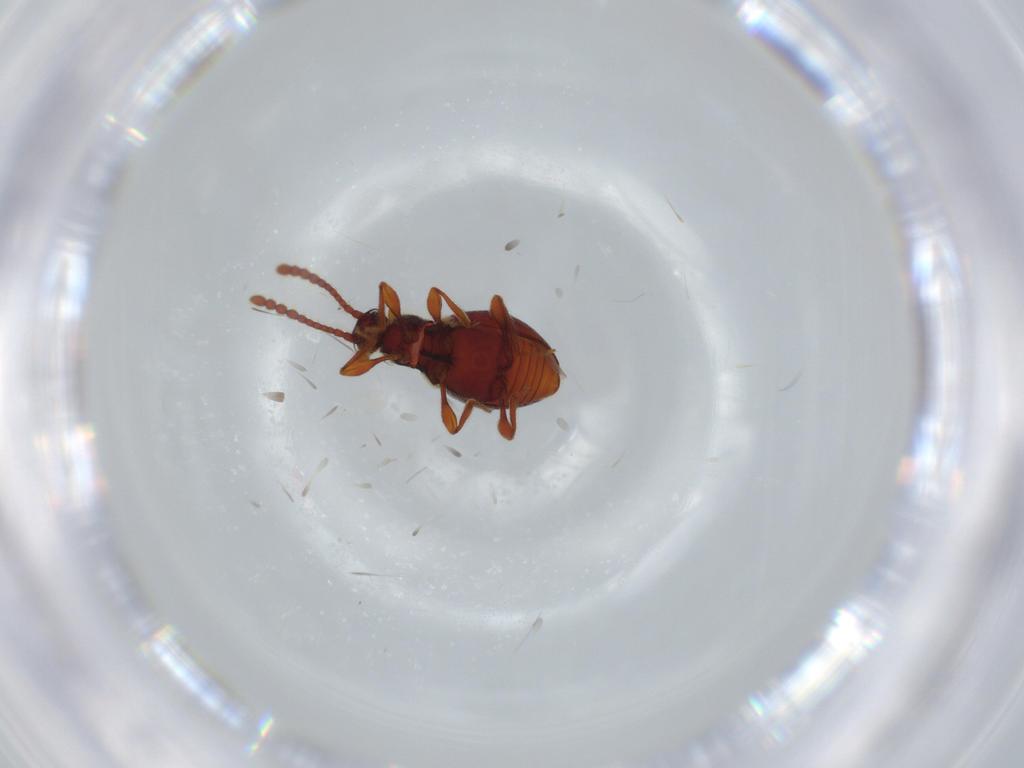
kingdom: Animalia
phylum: Arthropoda
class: Insecta
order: Coleoptera
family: Staphylinidae
